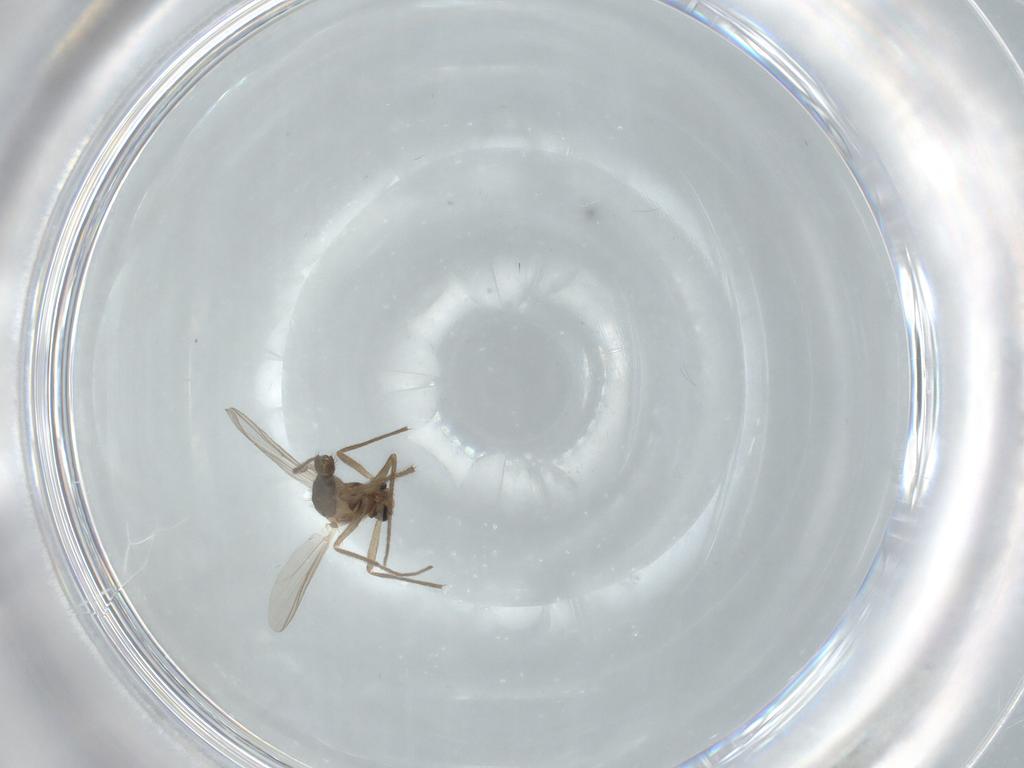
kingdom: Animalia
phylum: Arthropoda
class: Insecta
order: Diptera
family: Chironomidae
